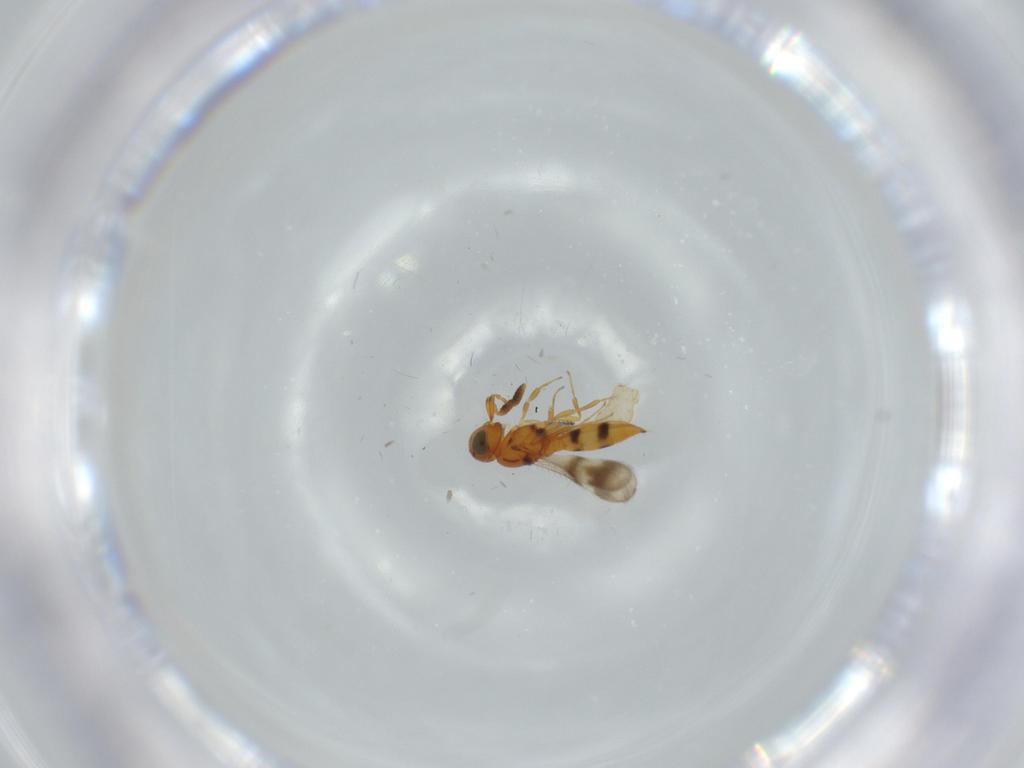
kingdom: Animalia
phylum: Arthropoda
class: Insecta
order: Hymenoptera
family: Scelionidae
